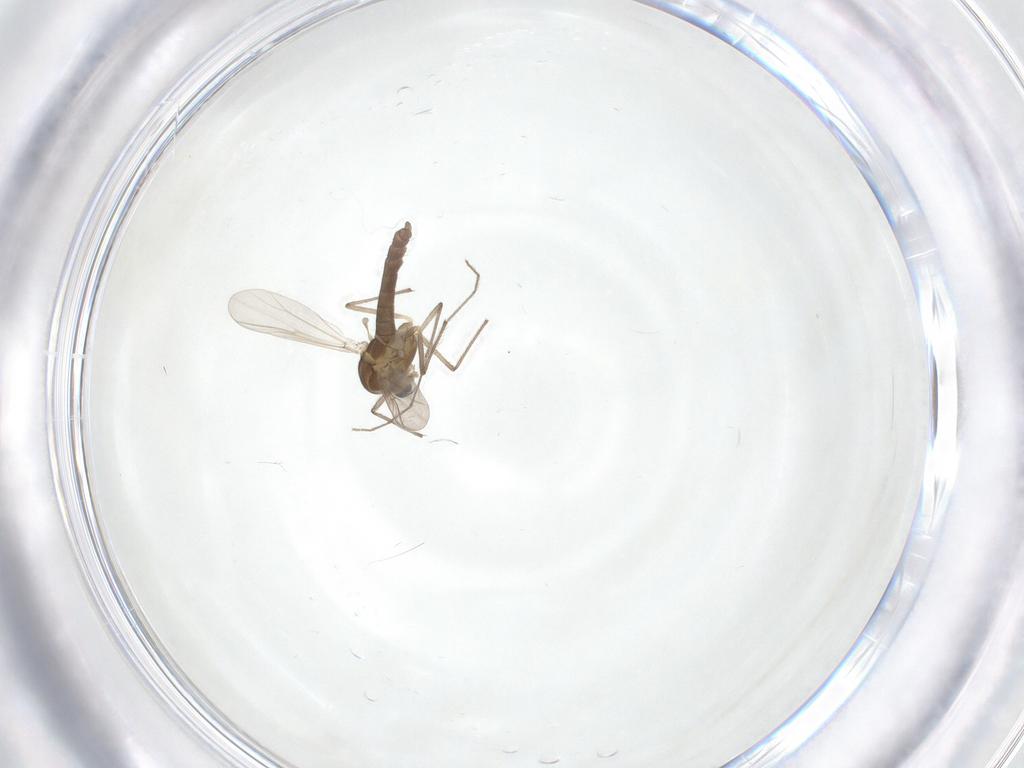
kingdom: Animalia
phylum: Arthropoda
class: Insecta
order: Diptera
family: Chironomidae
